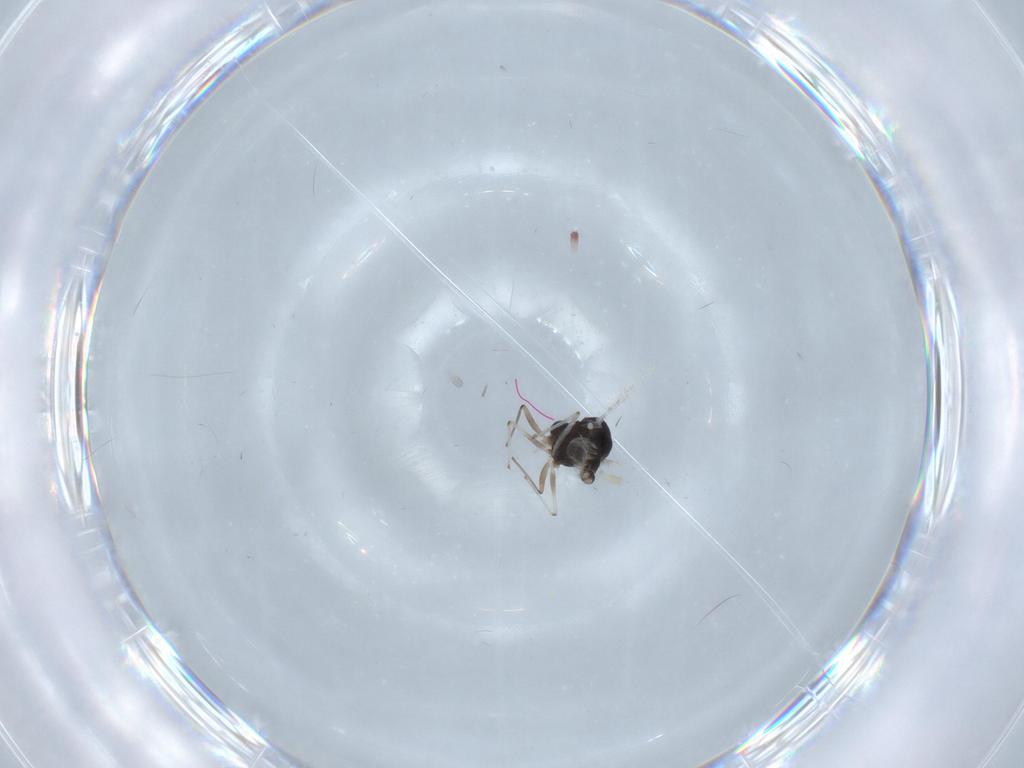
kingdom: Animalia
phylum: Arthropoda
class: Insecta
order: Diptera
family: Chironomidae
